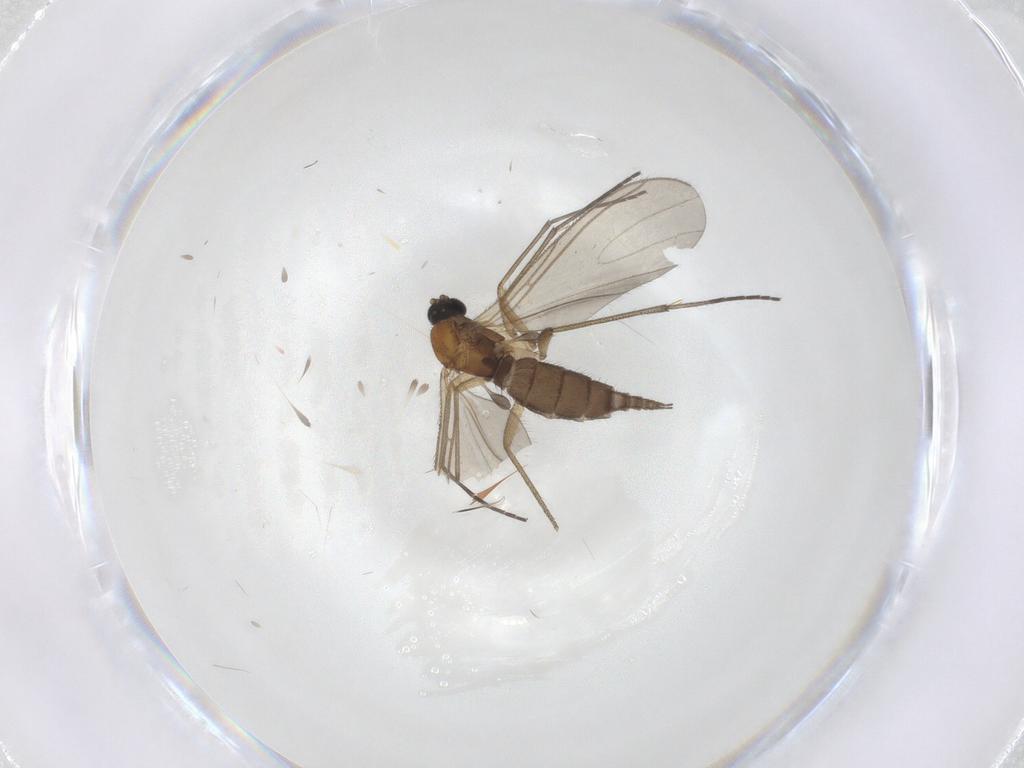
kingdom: Animalia
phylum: Arthropoda
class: Insecta
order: Diptera
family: Sciaridae
